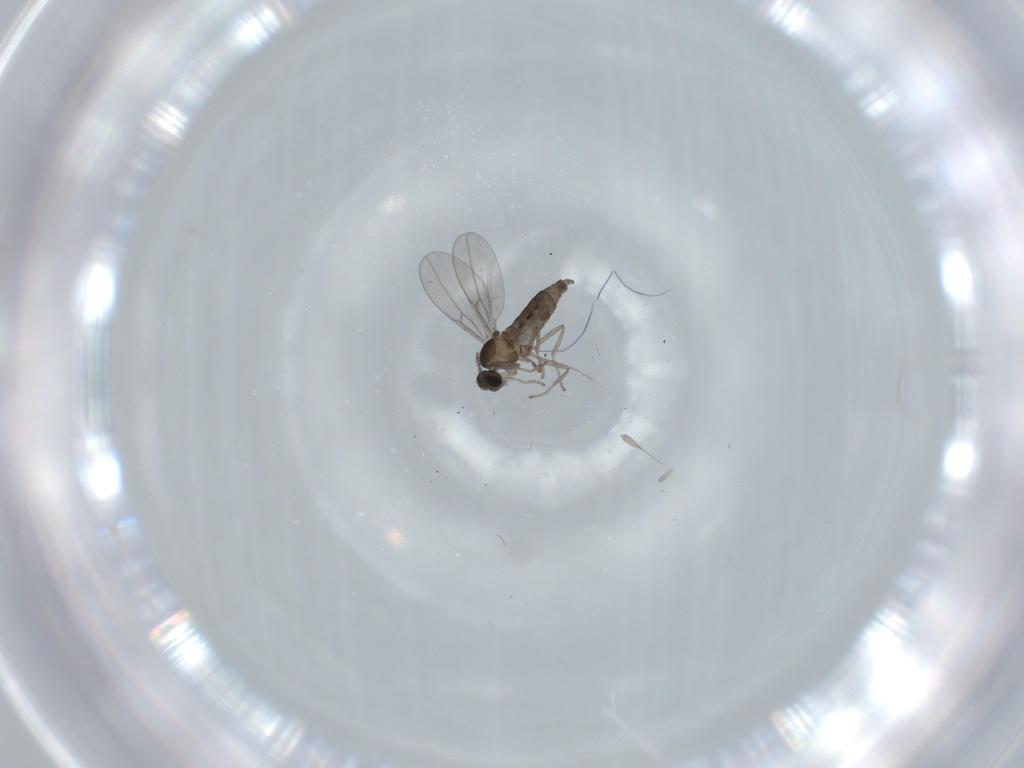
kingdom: Animalia
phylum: Arthropoda
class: Insecta
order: Diptera
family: Cecidomyiidae
